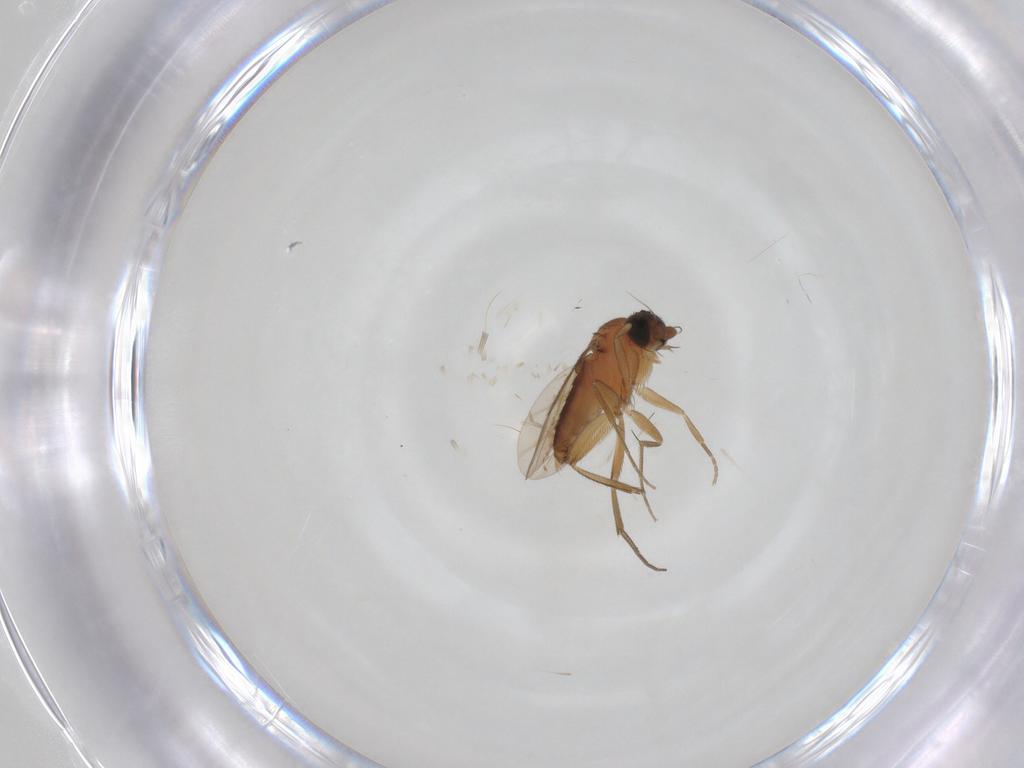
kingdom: Animalia
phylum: Arthropoda
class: Insecta
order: Diptera
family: Phoridae
